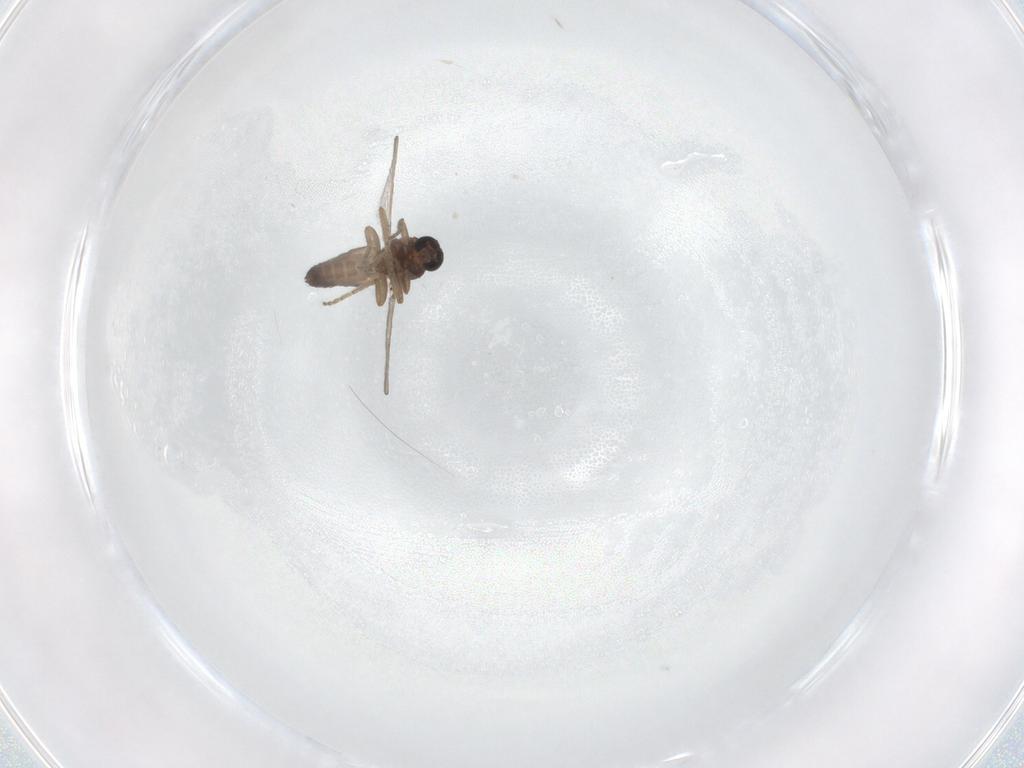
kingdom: Animalia
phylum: Arthropoda
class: Insecta
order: Diptera
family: Ceratopogonidae
